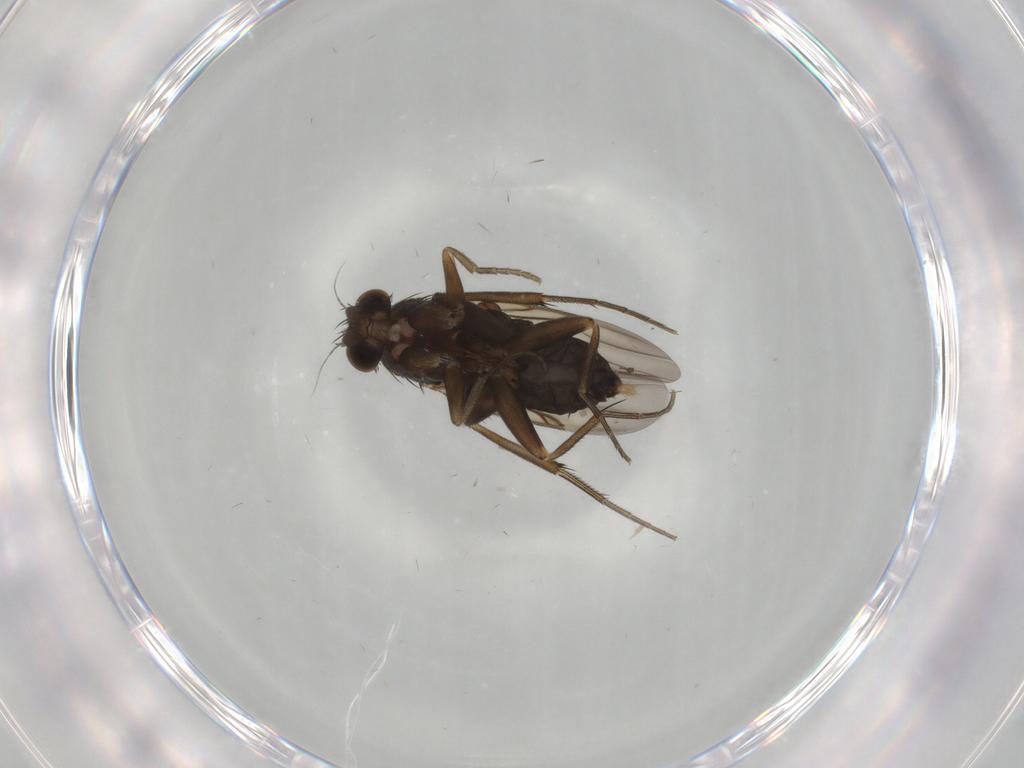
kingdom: Animalia
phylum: Arthropoda
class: Insecta
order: Diptera
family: Phoridae
